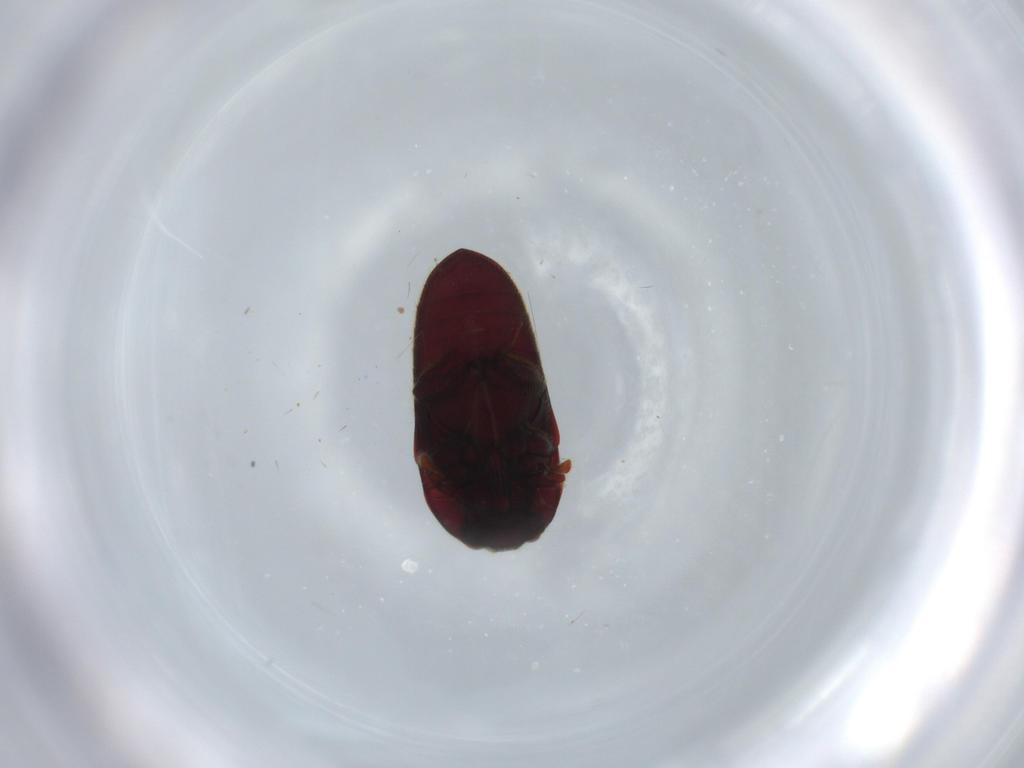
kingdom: Animalia
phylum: Arthropoda
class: Insecta
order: Coleoptera
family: Throscidae
